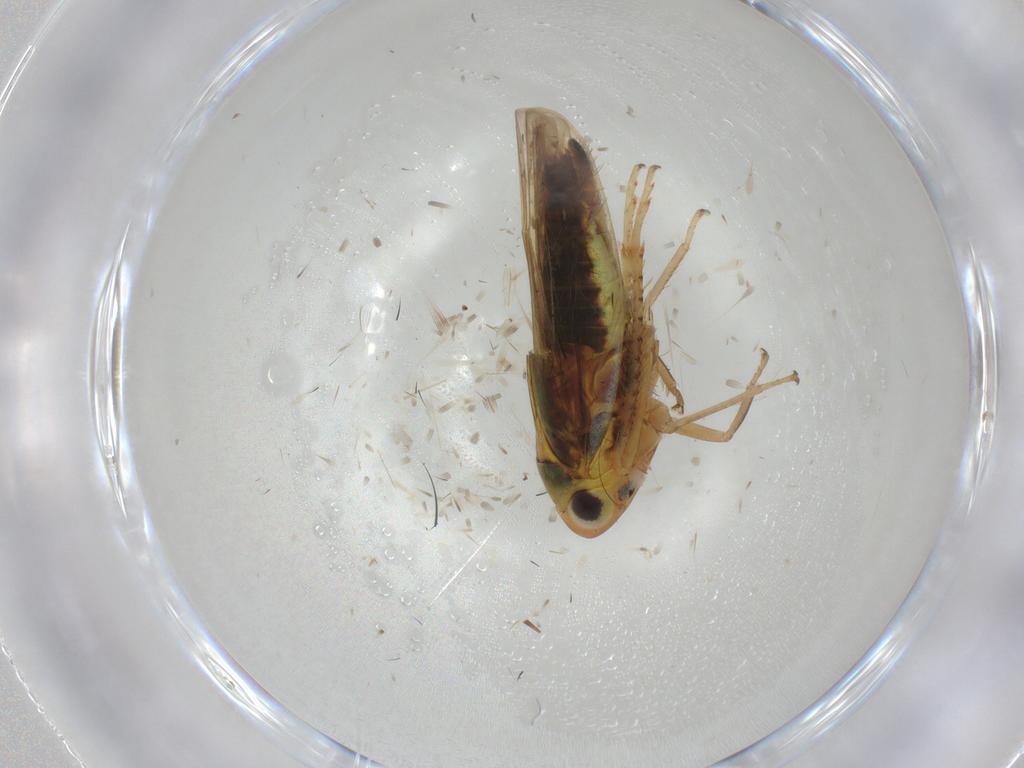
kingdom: Animalia
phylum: Arthropoda
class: Insecta
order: Hemiptera
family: Cicadellidae
